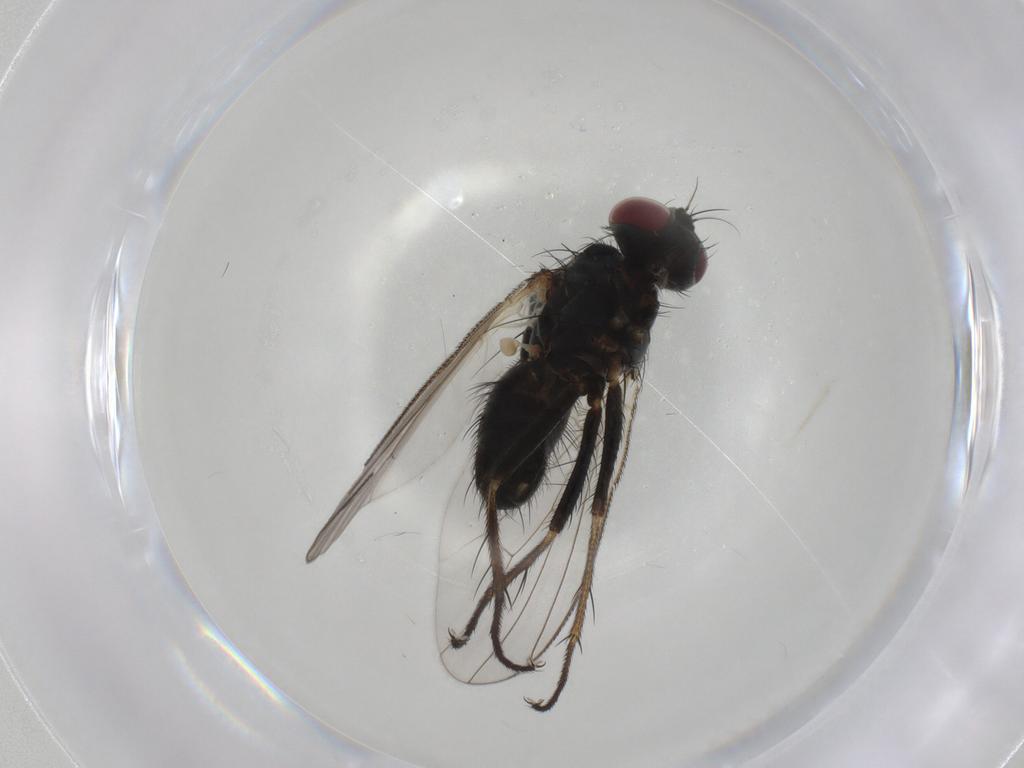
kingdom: Animalia
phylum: Arthropoda
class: Insecta
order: Diptera
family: Muscidae
